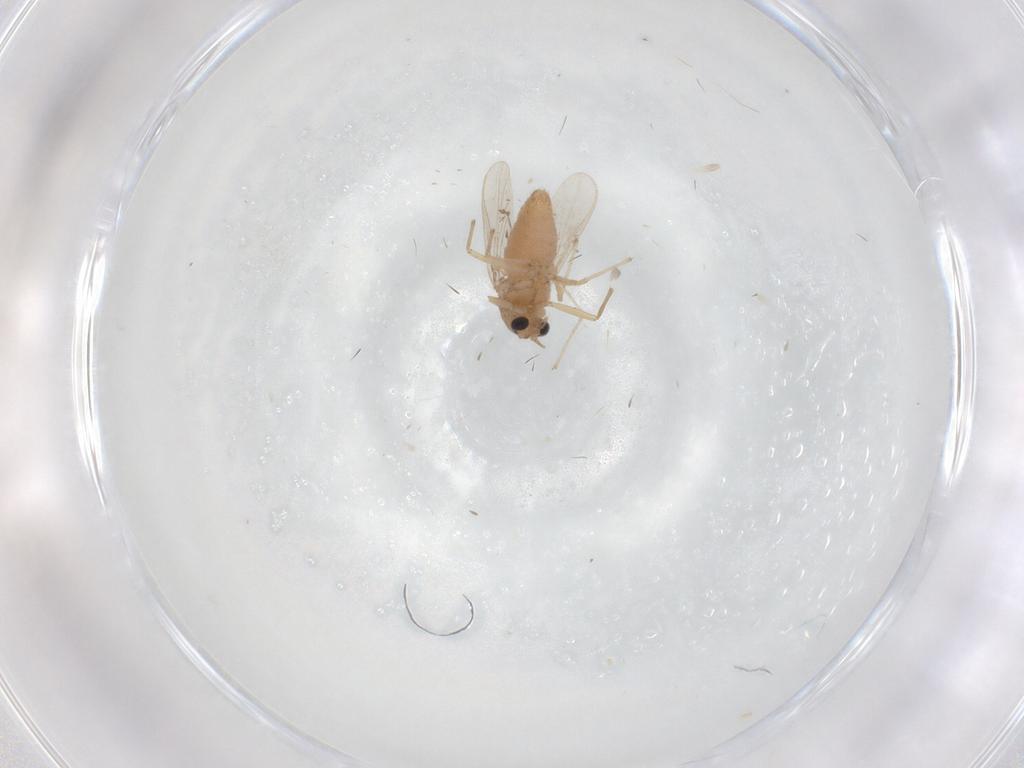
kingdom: Animalia
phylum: Arthropoda
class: Insecta
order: Diptera
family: Chironomidae
